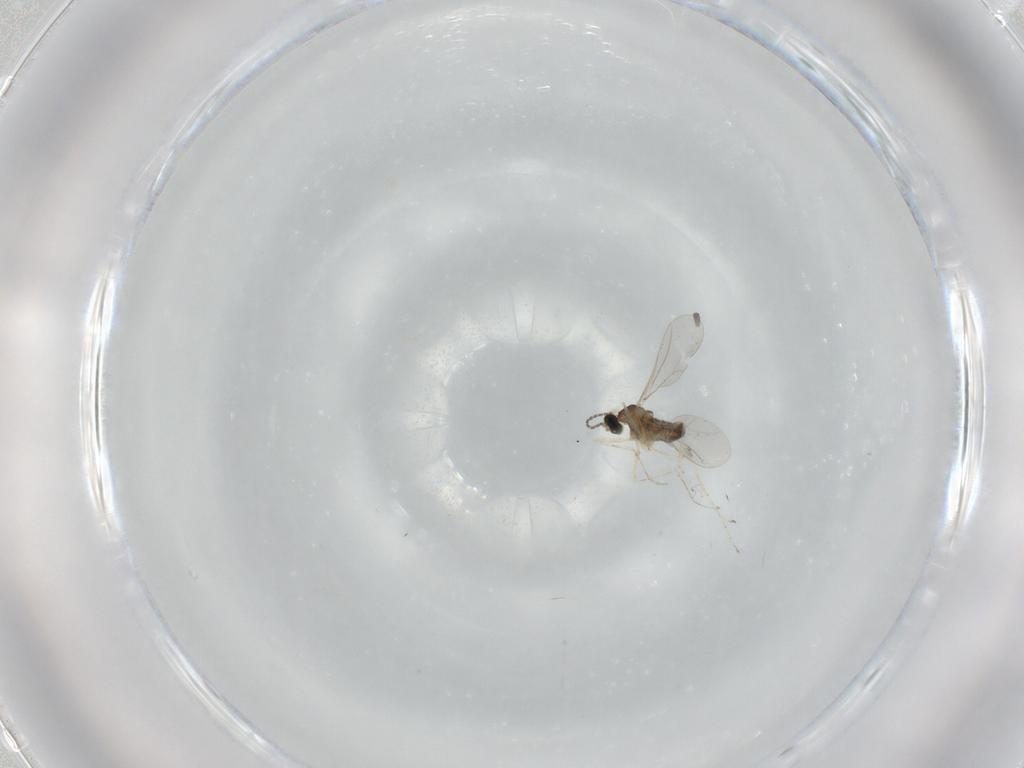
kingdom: Animalia
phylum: Arthropoda
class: Insecta
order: Diptera
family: Cecidomyiidae
